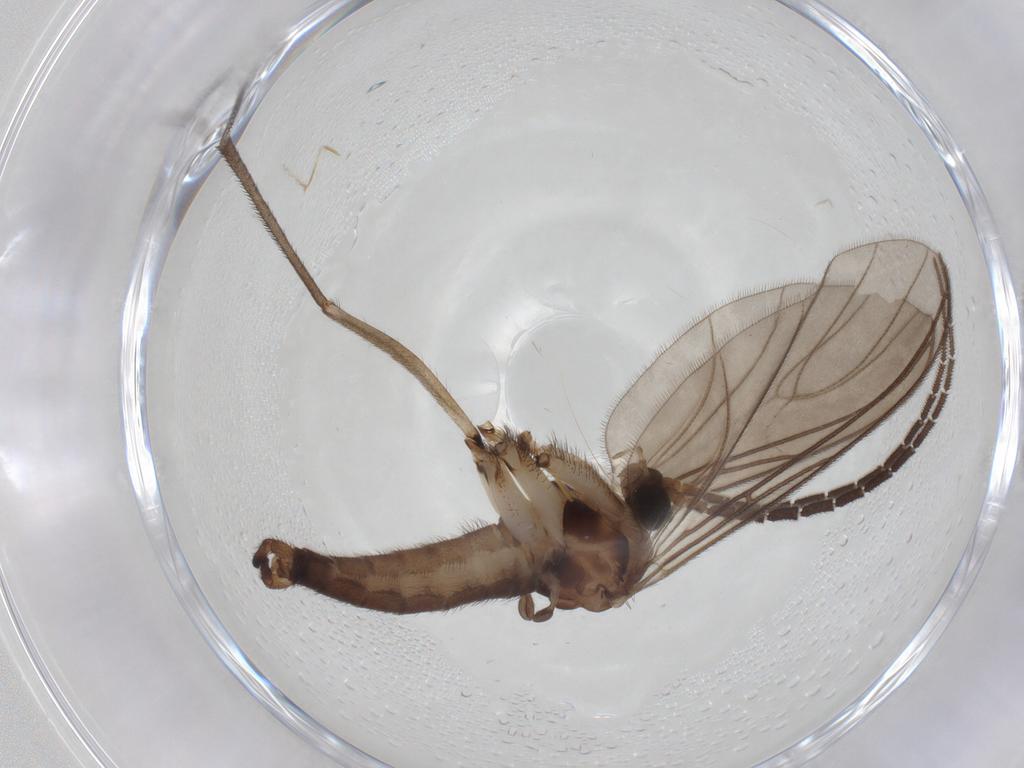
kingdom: Animalia
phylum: Arthropoda
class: Insecta
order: Diptera
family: Sciaridae
